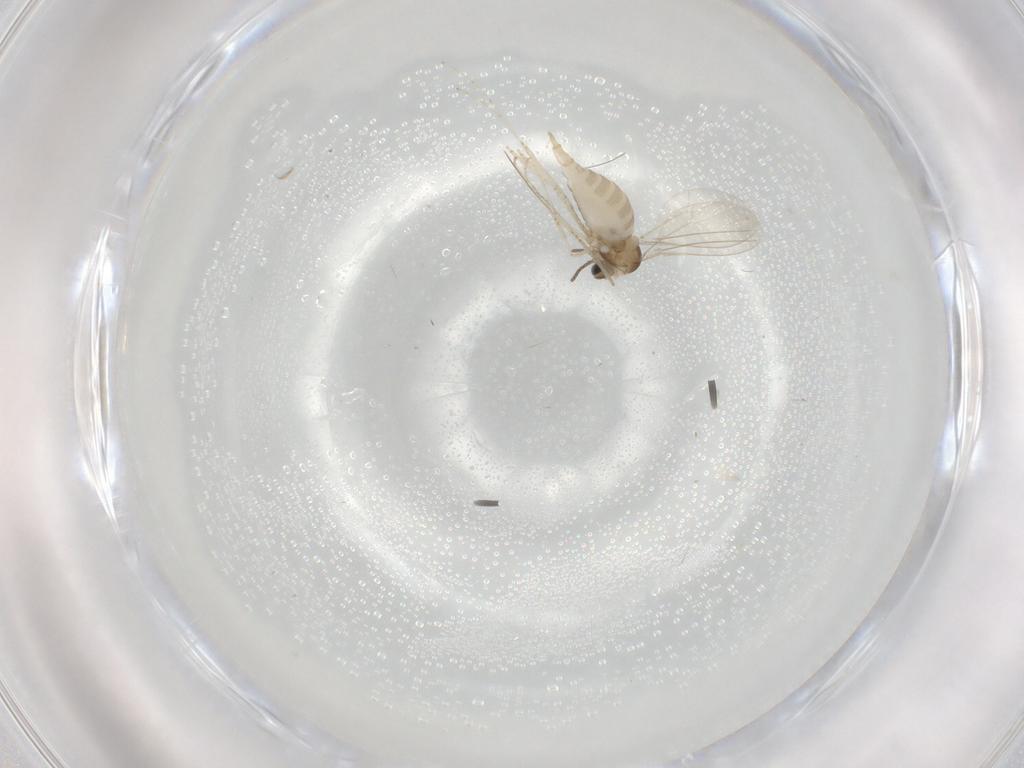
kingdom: Animalia
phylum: Arthropoda
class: Insecta
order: Diptera
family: Cecidomyiidae
